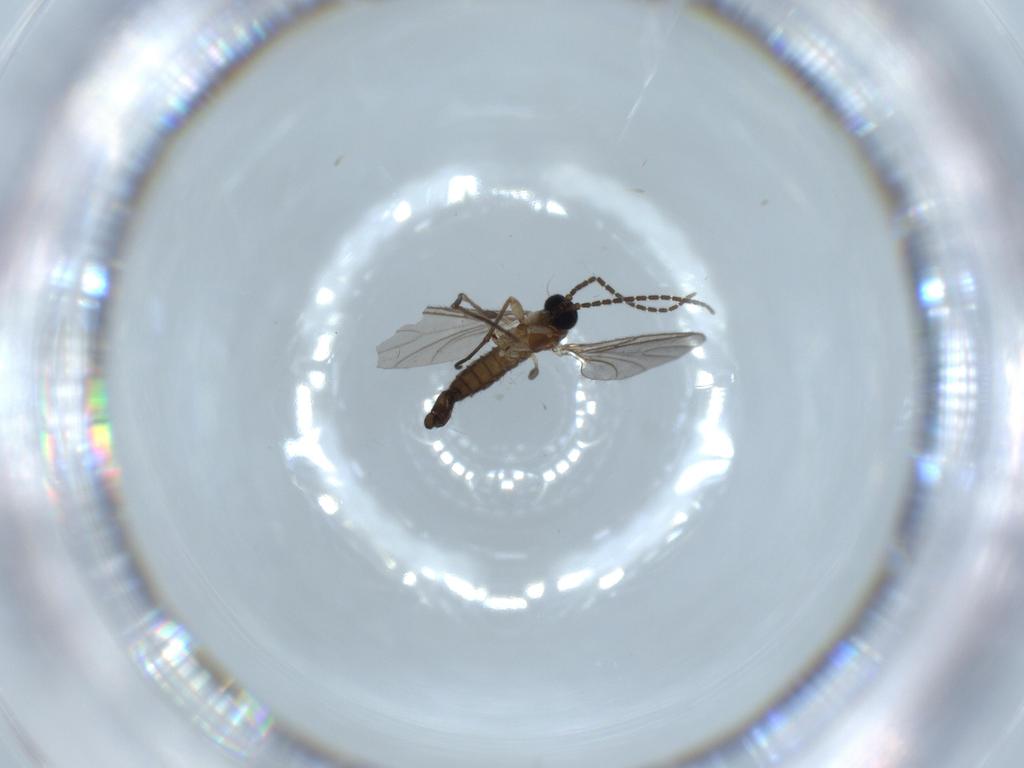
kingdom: Animalia
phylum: Arthropoda
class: Insecta
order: Diptera
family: Sciaridae
